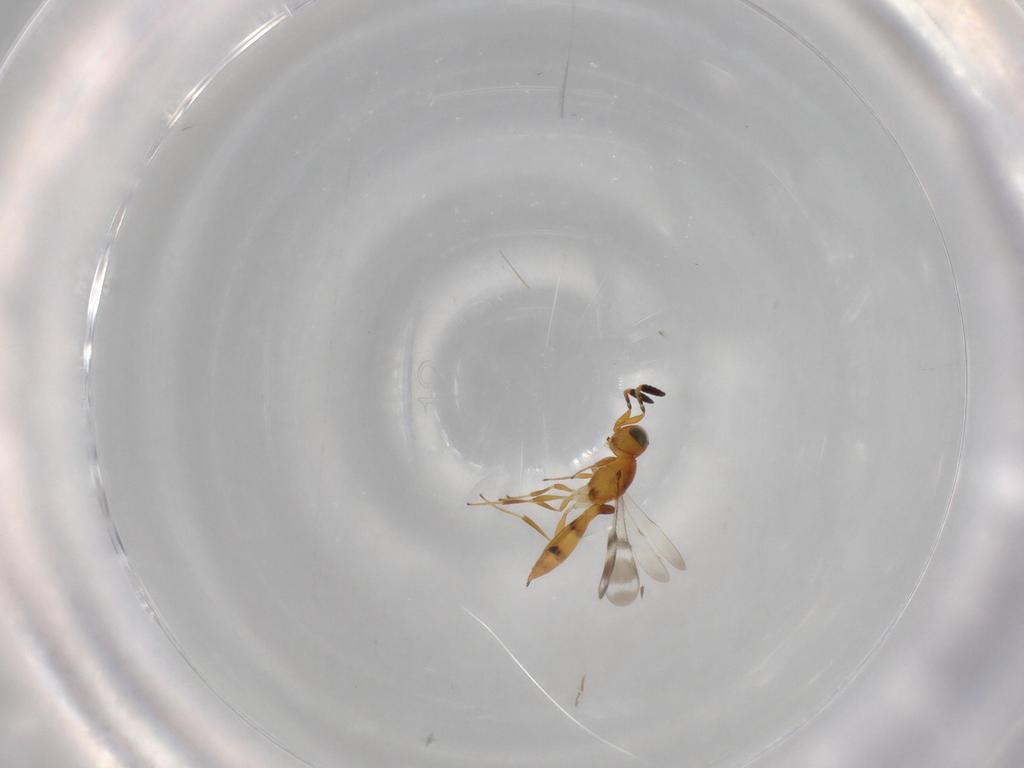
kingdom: Animalia
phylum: Arthropoda
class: Insecta
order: Hymenoptera
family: Scelionidae
